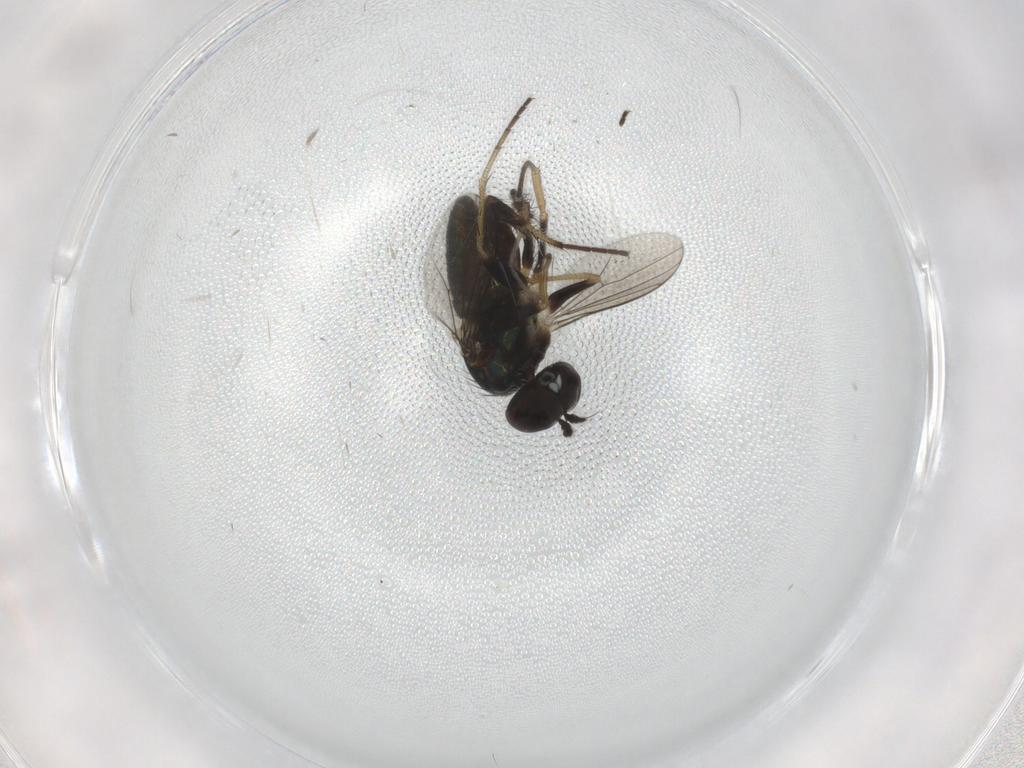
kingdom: Animalia
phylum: Arthropoda
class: Insecta
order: Diptera
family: Psychodidae
